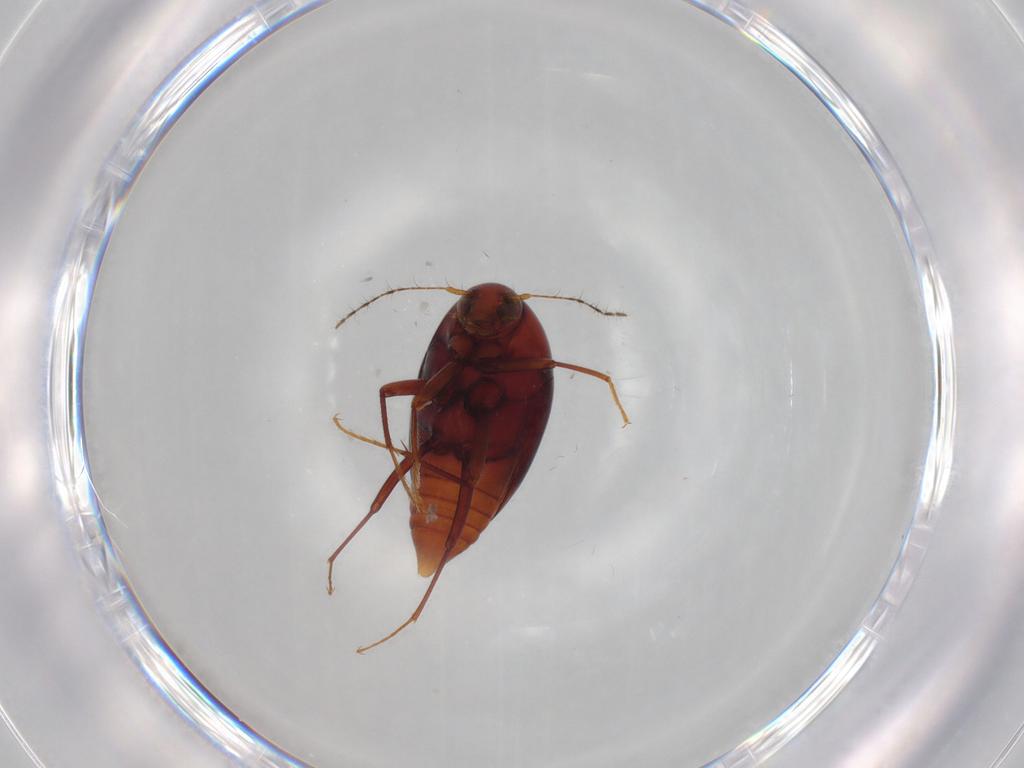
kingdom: Animalia
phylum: Arthropoda
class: Insecta
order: Coleoptera
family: Staphylinidae
